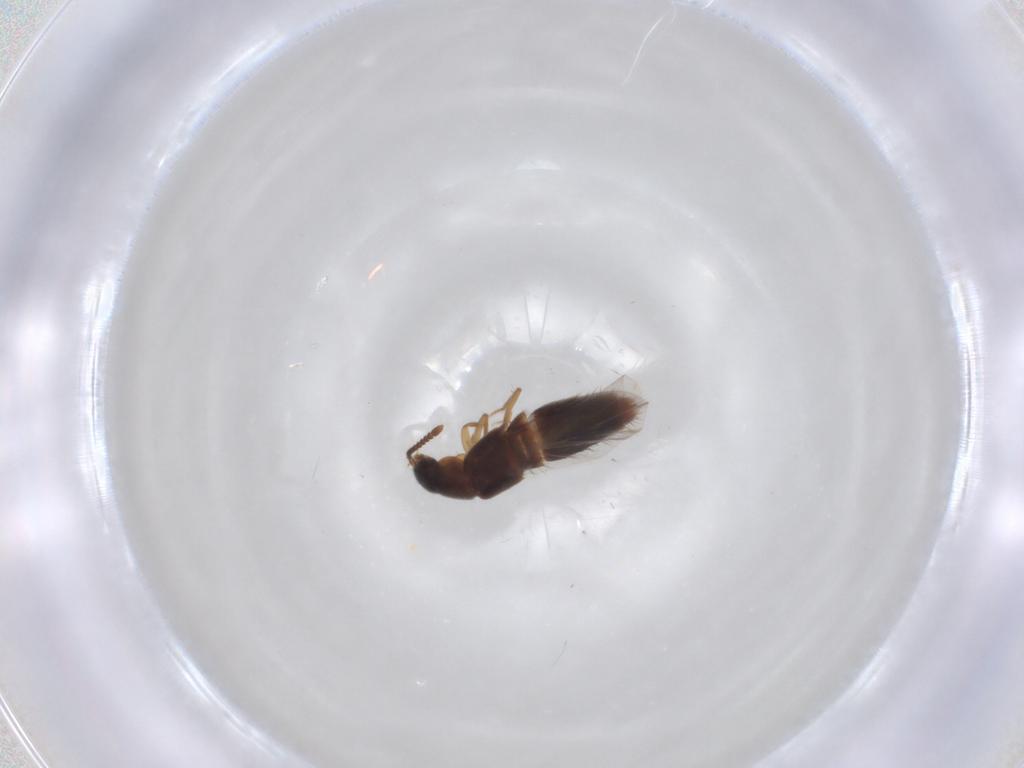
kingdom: Animalia
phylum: Arthropoda
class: Insecta
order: Coleoptera
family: Staphylinidae
